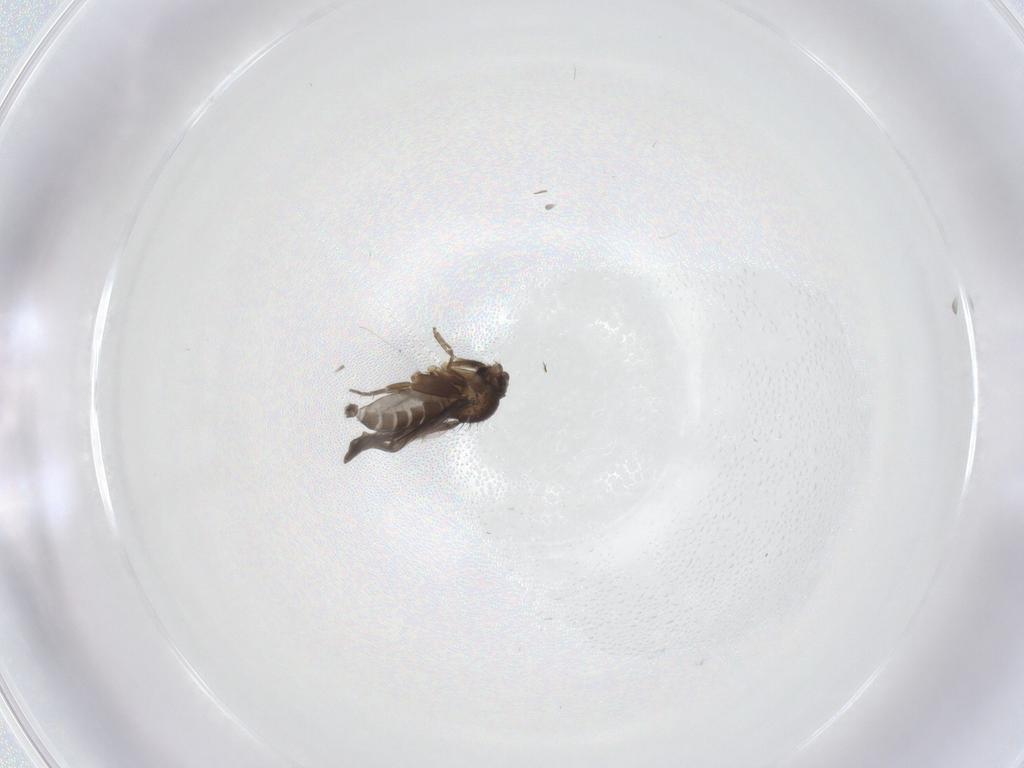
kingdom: Animalia
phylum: Arthropoda
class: Insecta
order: Diptera
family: Cecidomyiidae
